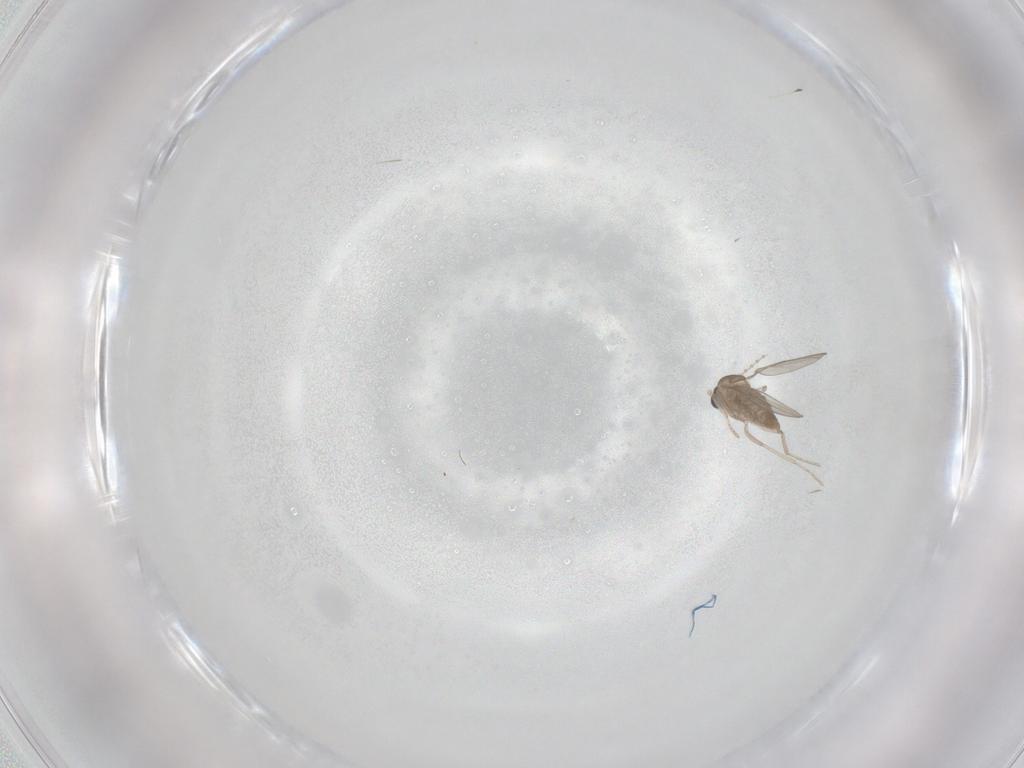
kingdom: Animalia
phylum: Arthropoda
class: Insecta
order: Diptera
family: Cecidomyiidae
